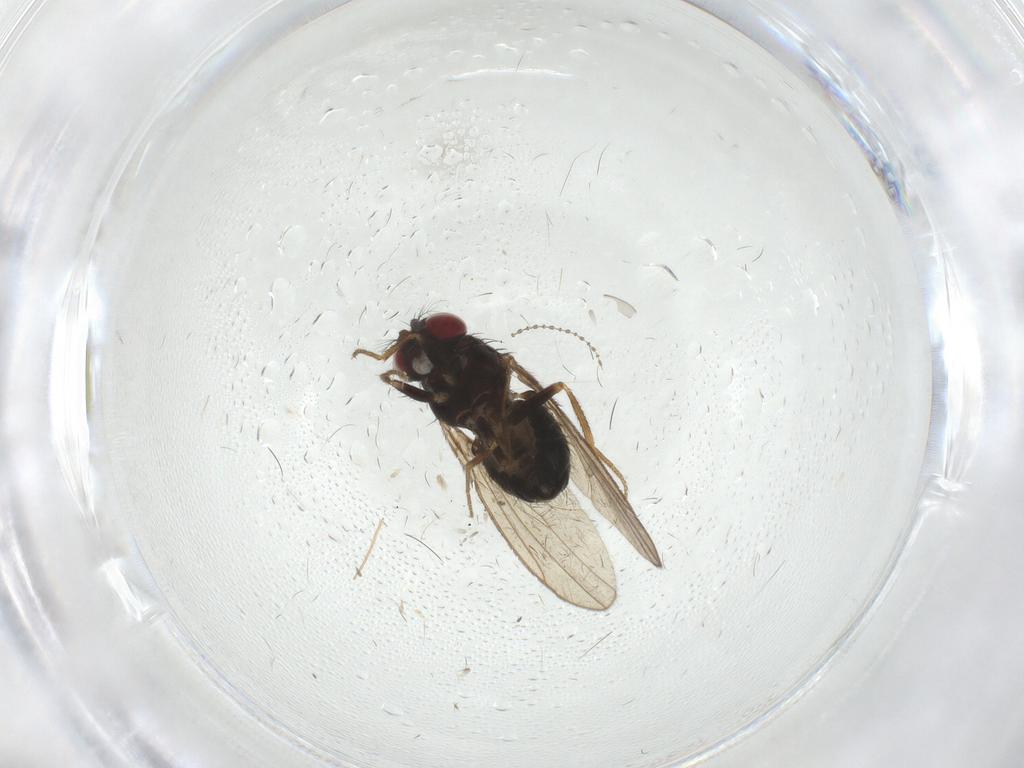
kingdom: Animalia
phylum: Arthropoda
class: Insecta
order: Diptera
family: Drosophilidae
